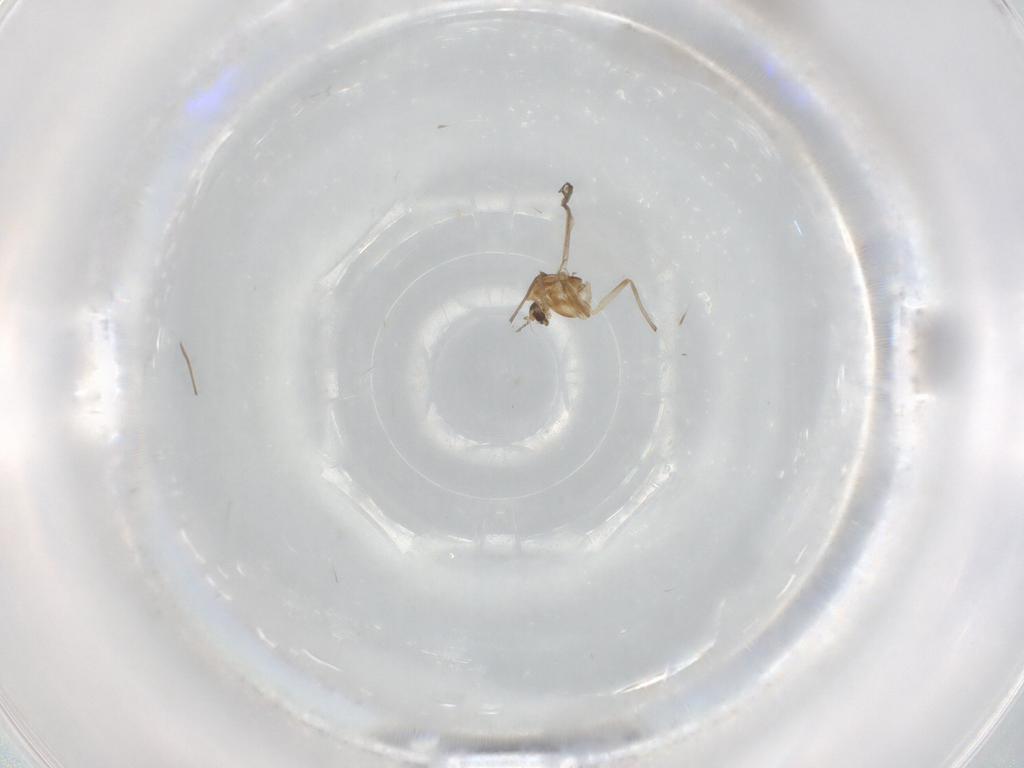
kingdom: Animalia
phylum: Arthropoda
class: Insecta
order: Diptera
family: Chironomidae
